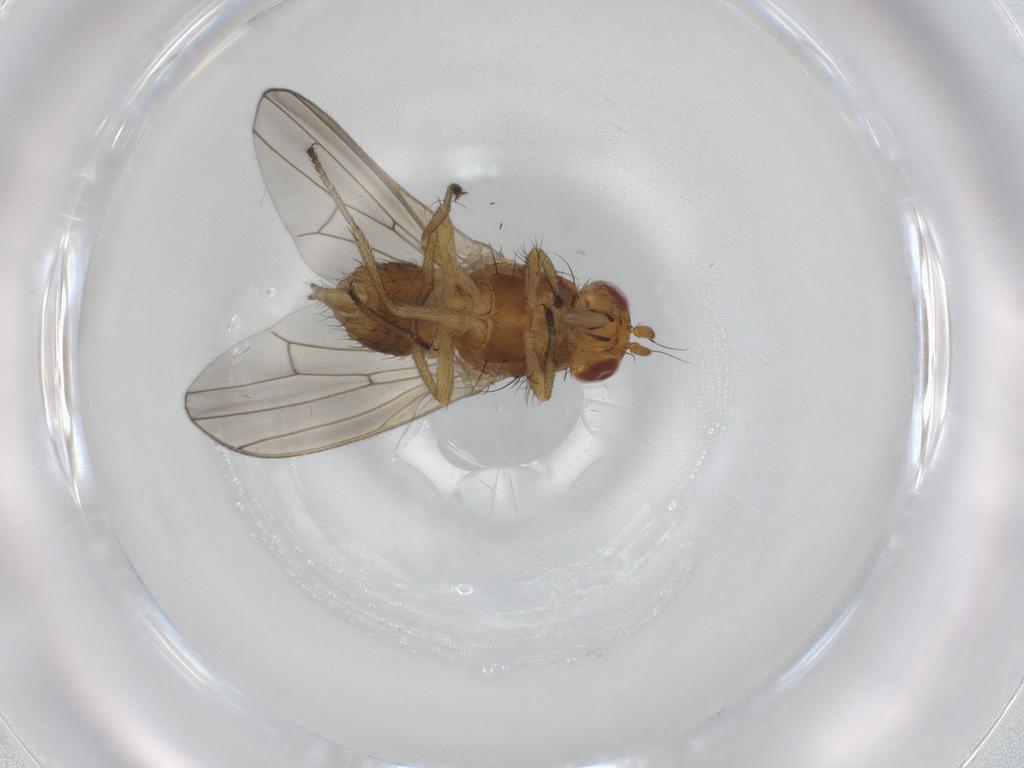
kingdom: Animalia
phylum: Arthropoda
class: Insecta
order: Diptera
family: Lauxaniidae
